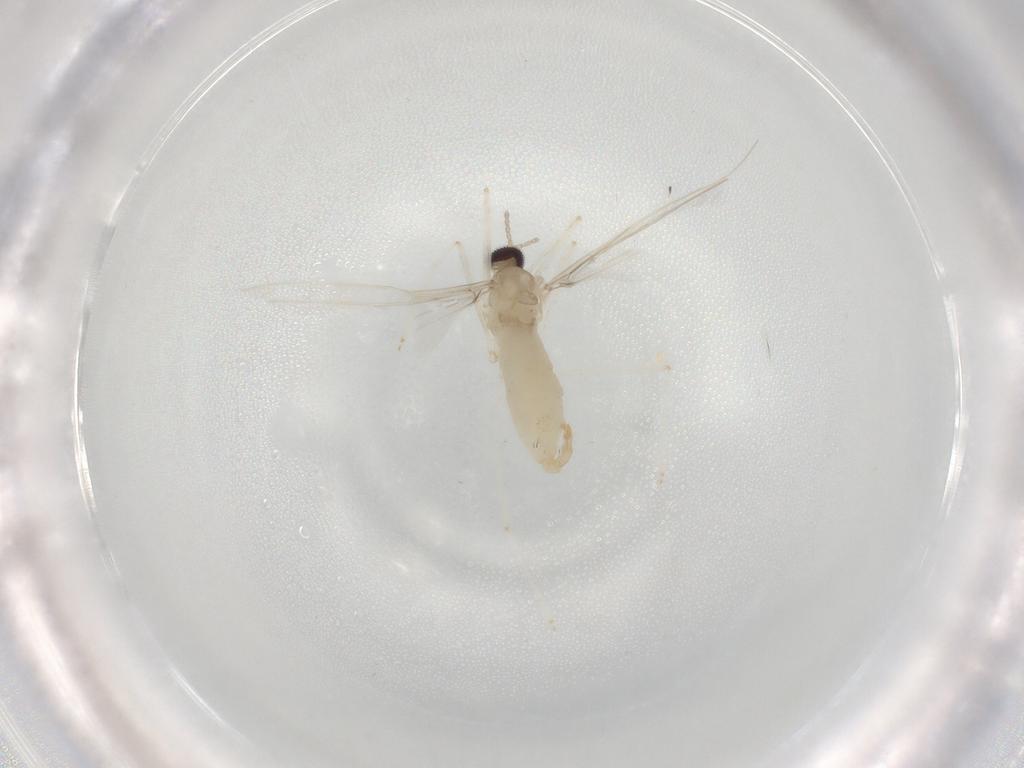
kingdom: Animalia
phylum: Arthropoda
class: Insecta
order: Diptera
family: Cecidomyiidae
